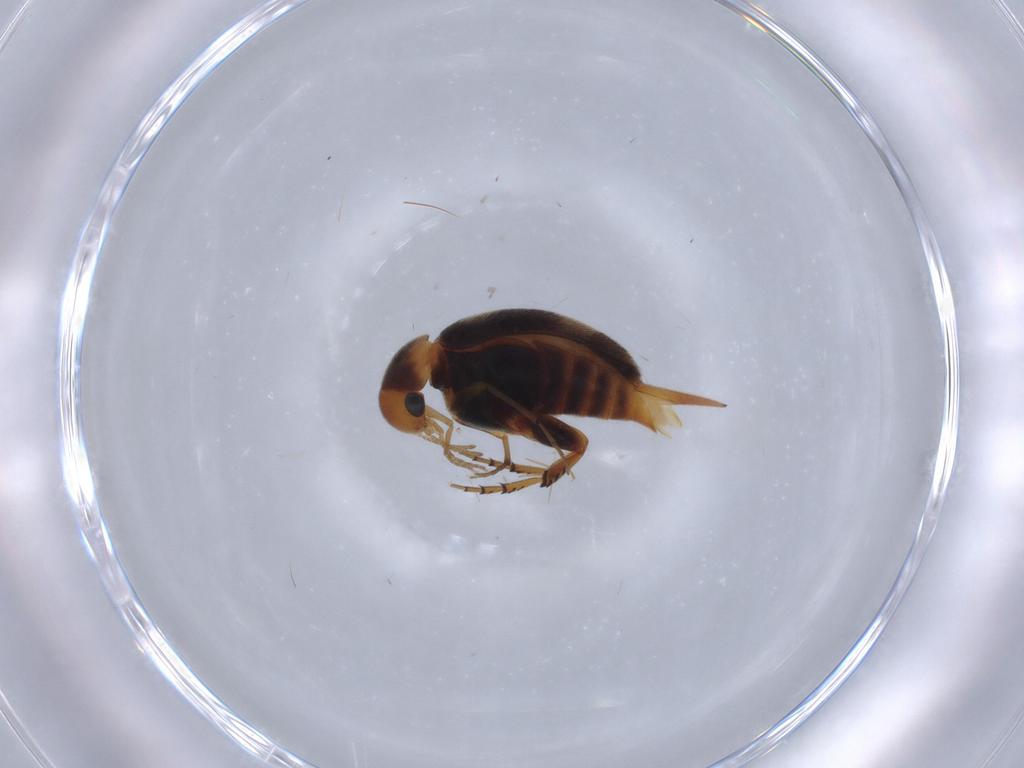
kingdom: Animalia
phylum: Arthropoda
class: Insecta
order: Coleoptera
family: Mordellidae
